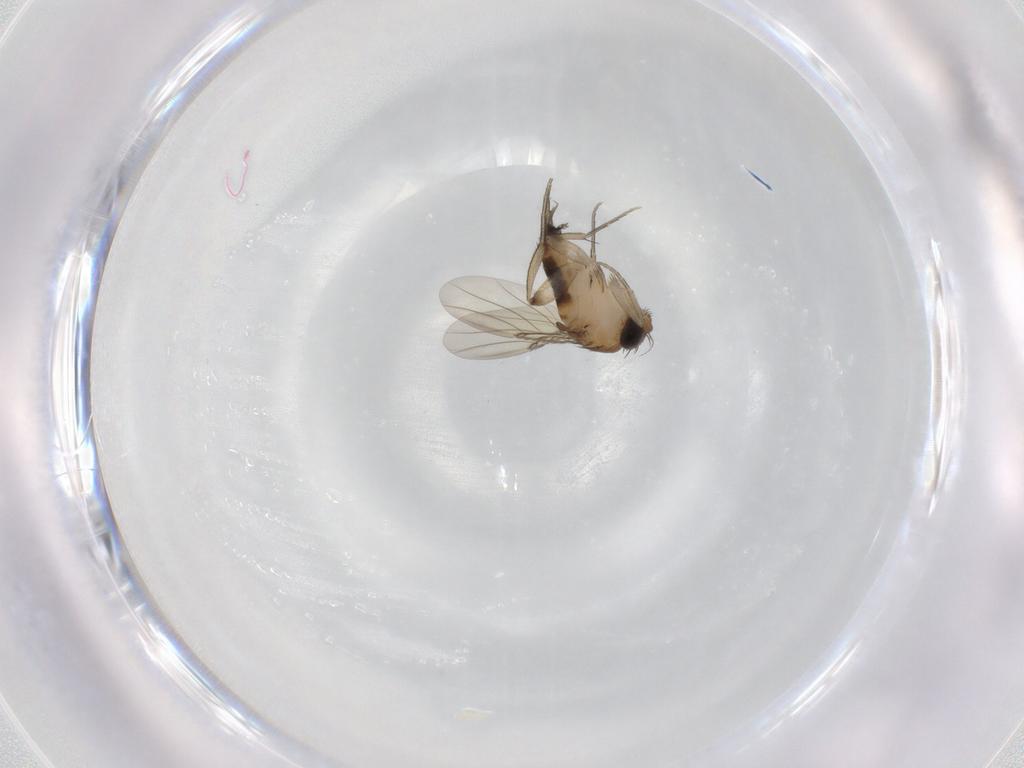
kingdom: Animalia
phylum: Arthropoda
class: Insecta
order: Diptera
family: Phoridae
